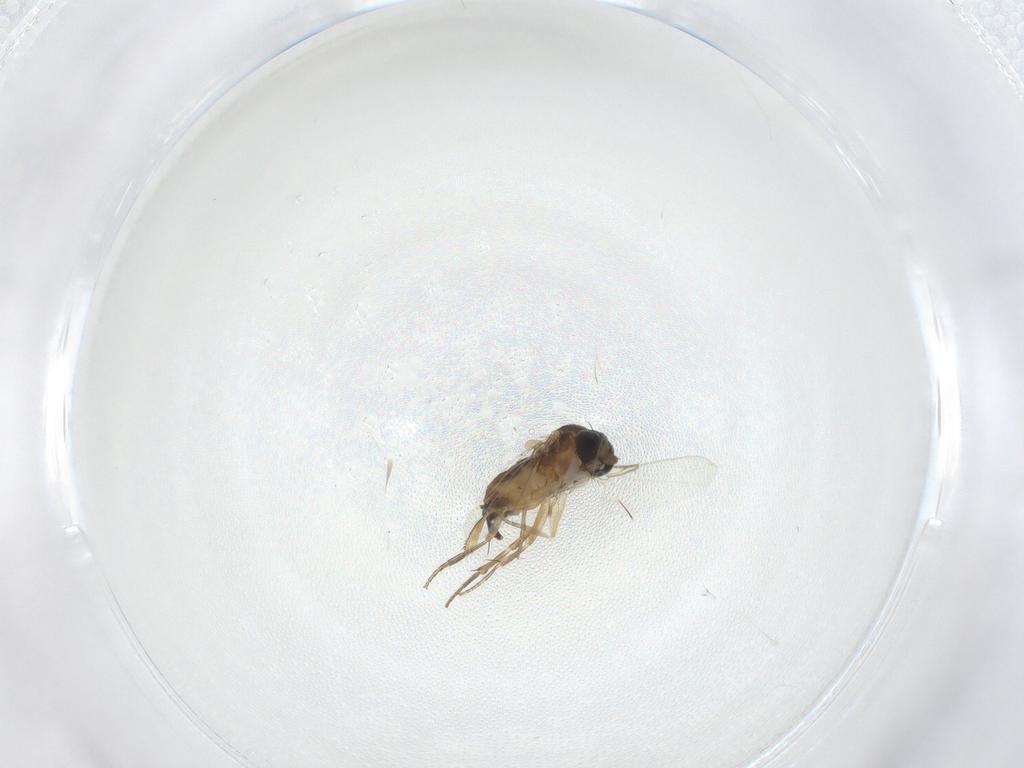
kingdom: Animalia
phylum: Arthropoda
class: Insecta
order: Diptera
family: Phoridae
